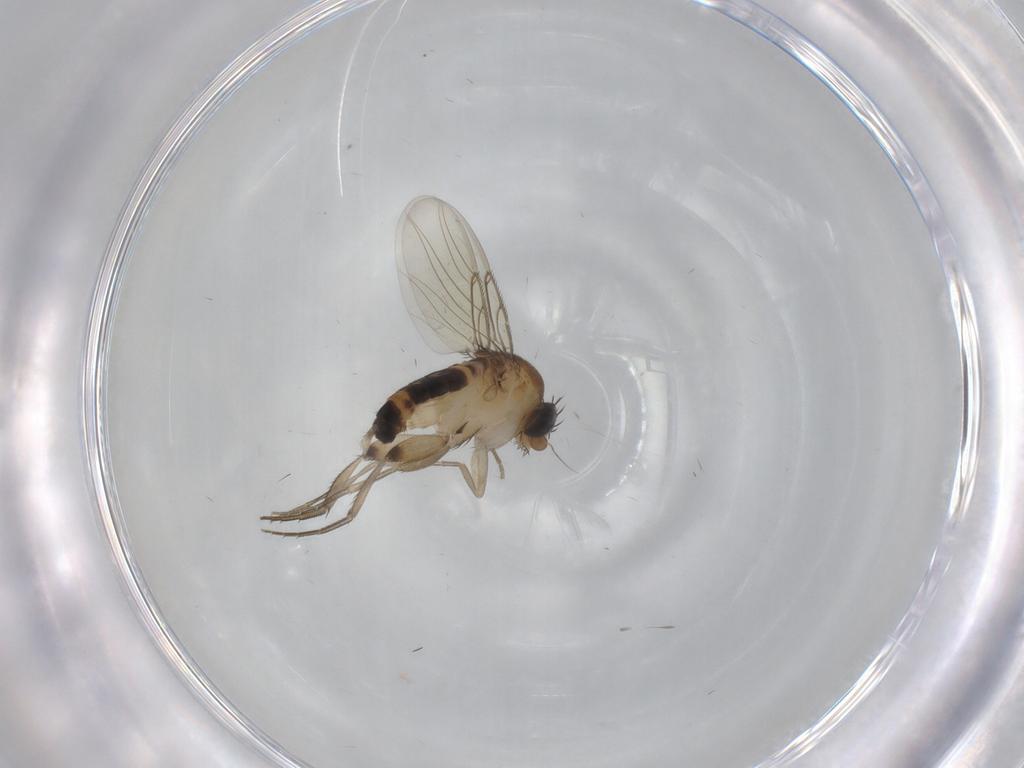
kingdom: Animalia
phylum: Arthropoda
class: Insecta
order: Diptera
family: Phoridae
